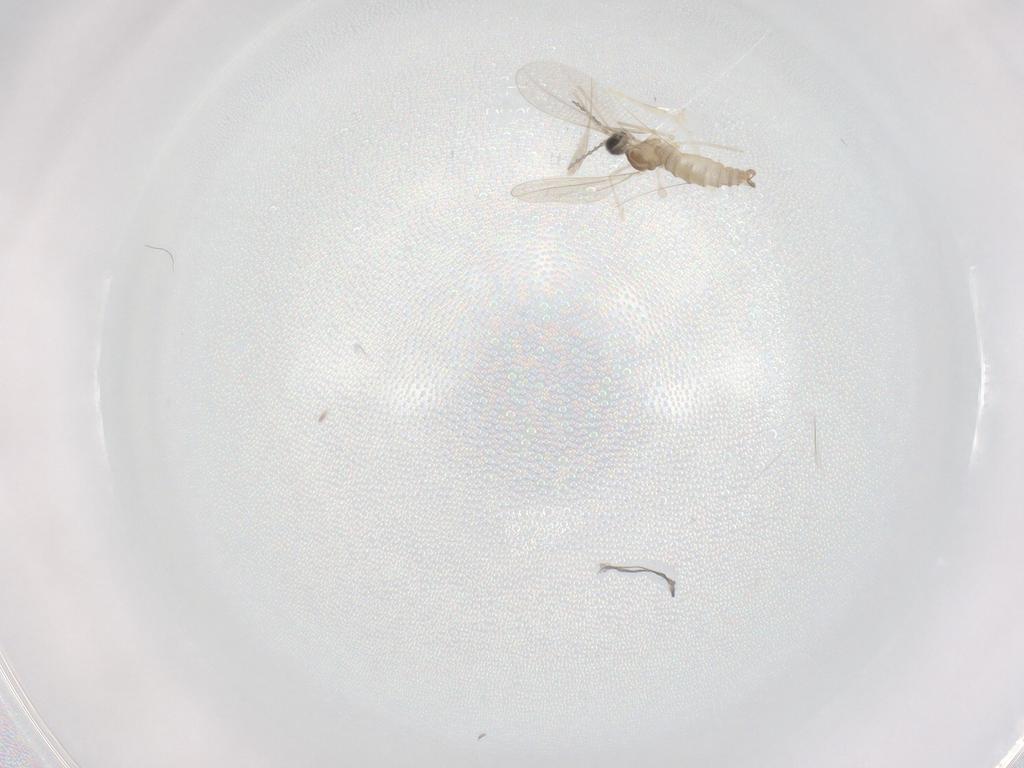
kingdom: Animalia
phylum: Arthropoda
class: Insecta
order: Diptera
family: Cecidomyiidae
